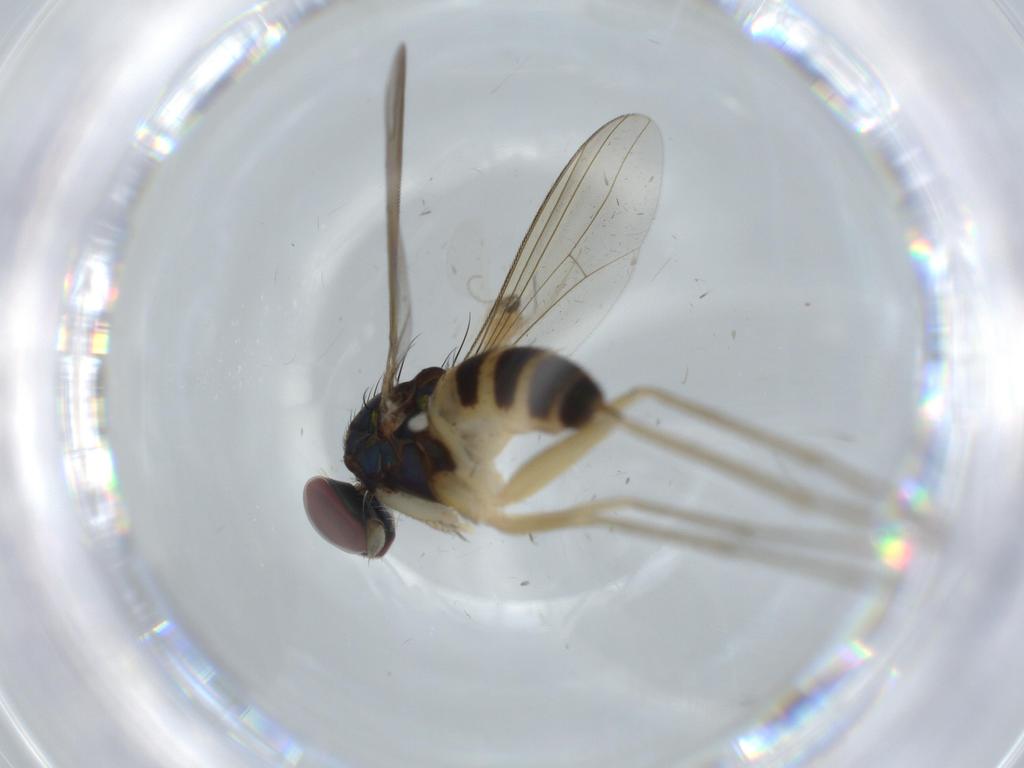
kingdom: Animalia
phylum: Arthropoda
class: Insecta
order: Diptera
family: Dolichopodidae
